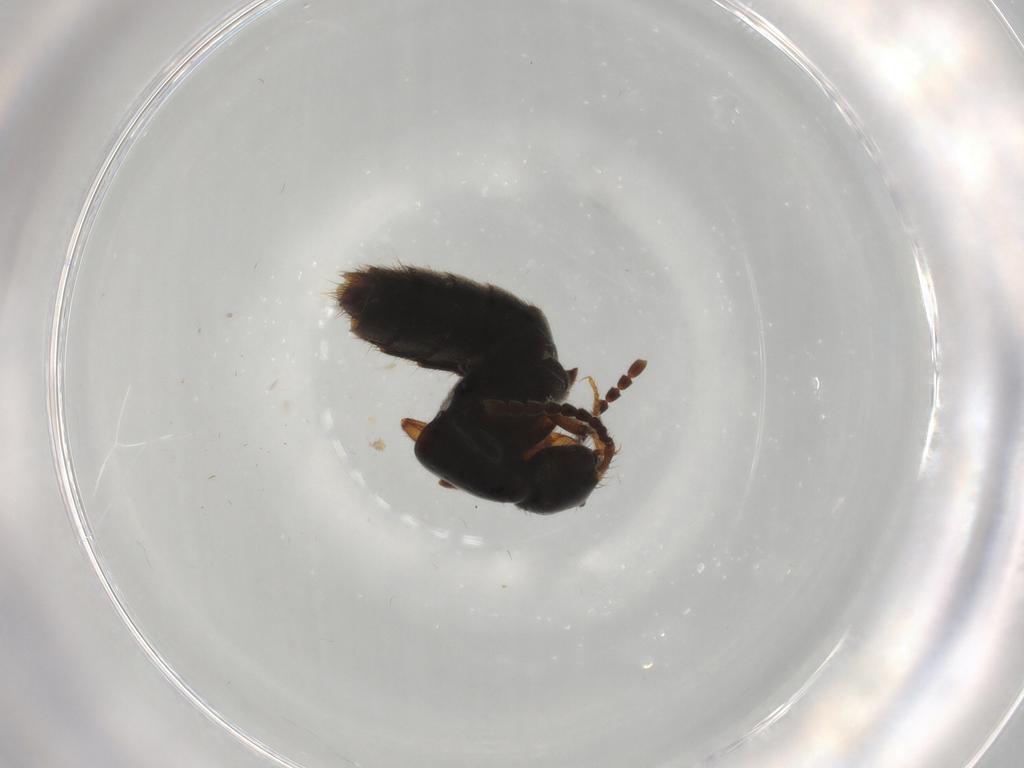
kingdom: Animalia
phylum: Arthropoda
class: Insecta
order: Coleoptera
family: Staphylinidae
